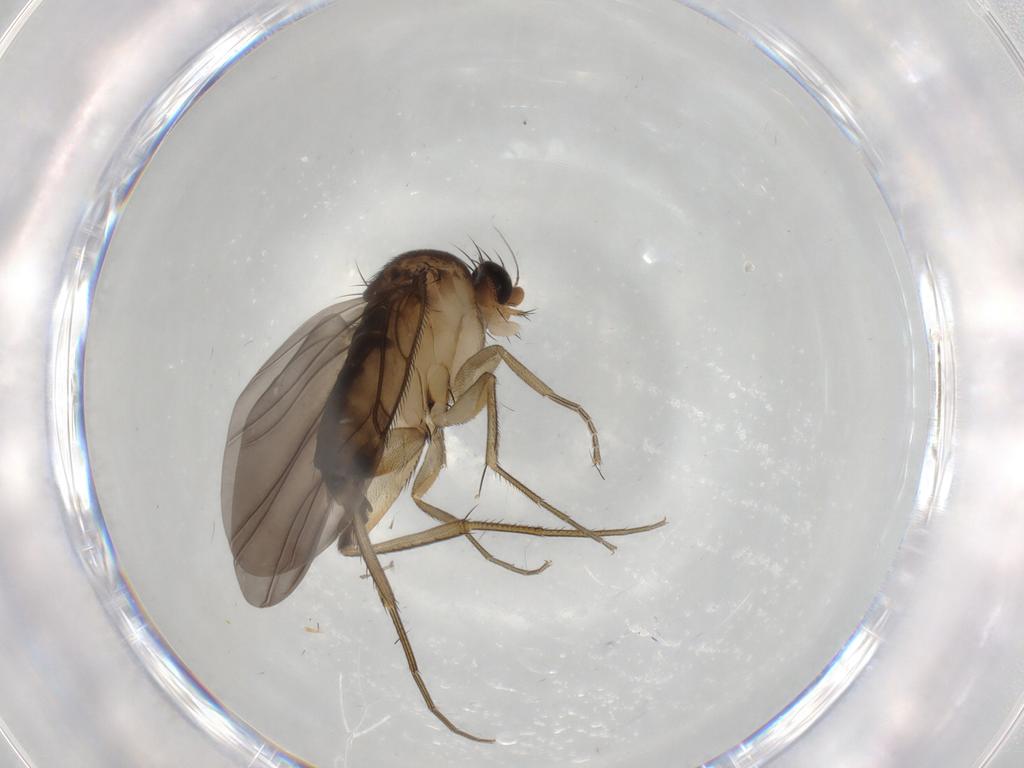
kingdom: Animalia
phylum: Arthropoda
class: Insecta
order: Diptera
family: Phoridae
